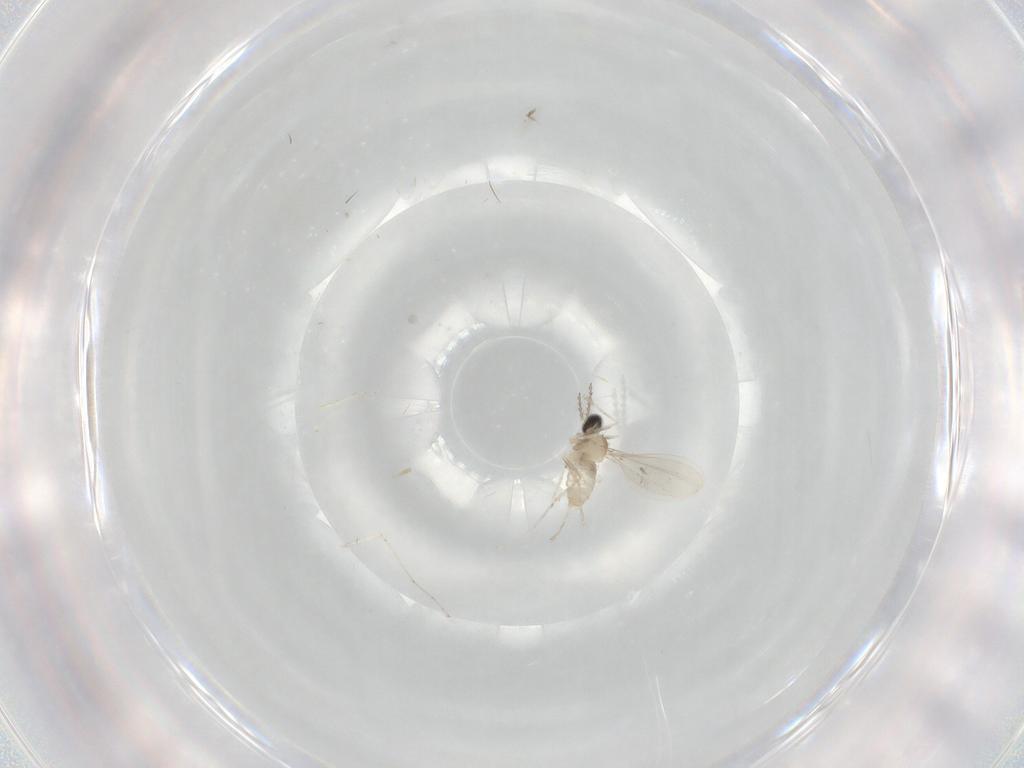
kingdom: Animalia
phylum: Arthropoda
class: Insecta
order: Diptera
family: Cecidomyiidae
